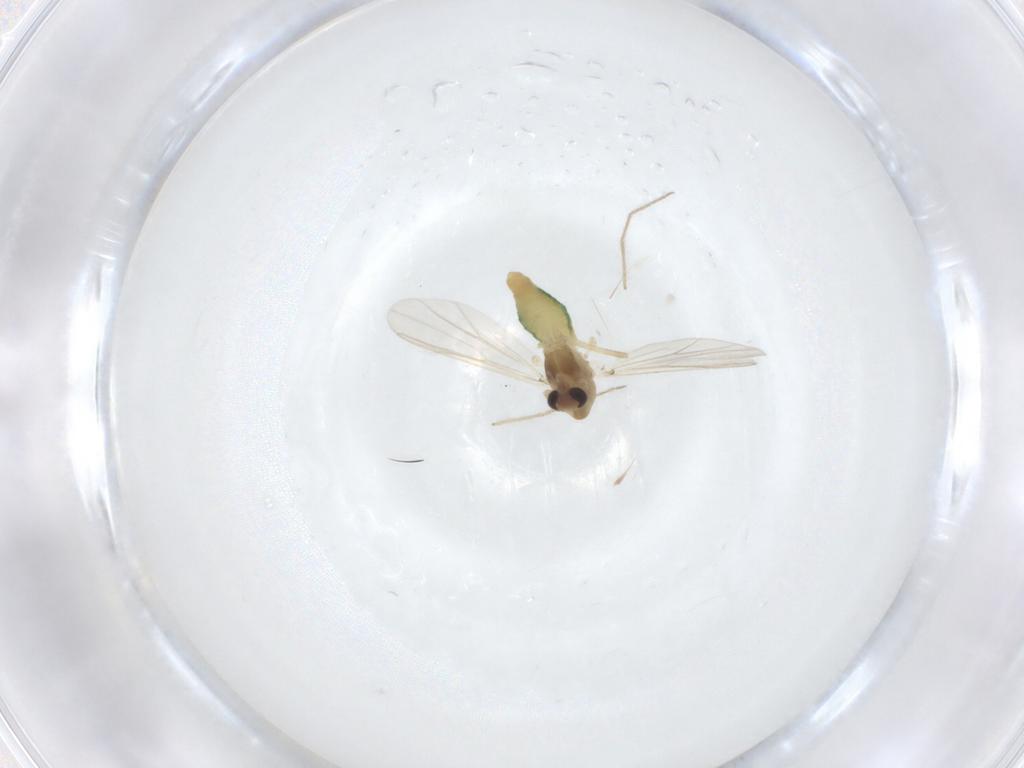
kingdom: Animalia
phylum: Arthropoda
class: Insecta
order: Diptera
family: Chironomidae
